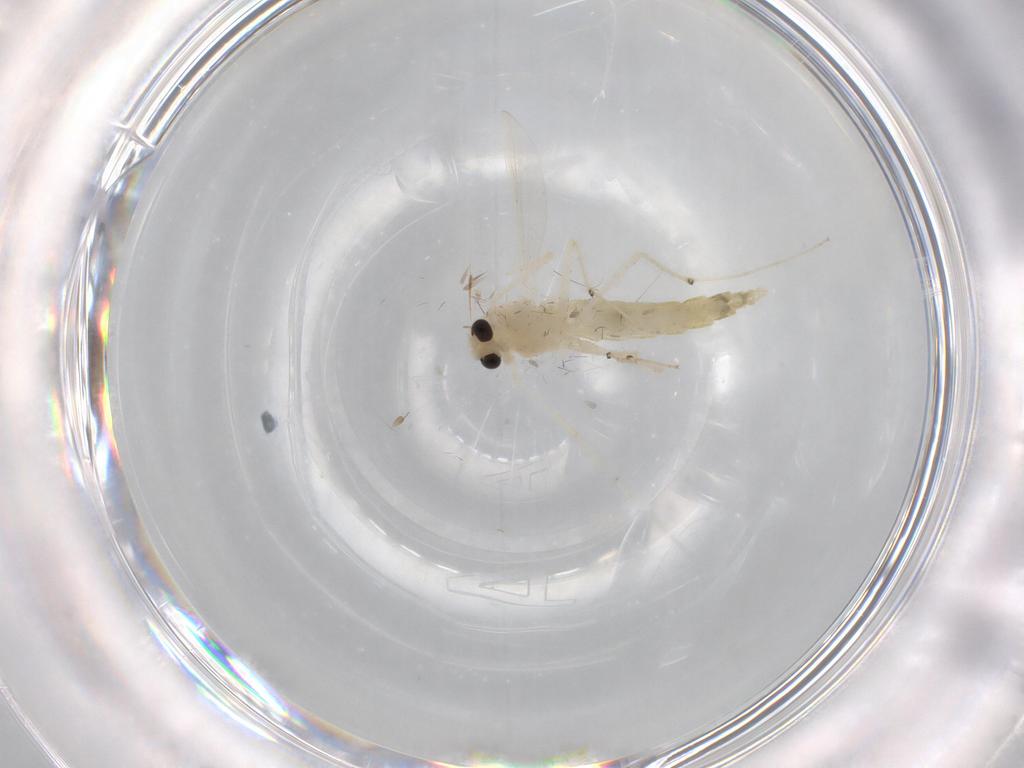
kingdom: Animalia
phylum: Arthropoda
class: Insecta
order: Diptera
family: Chironomidae
